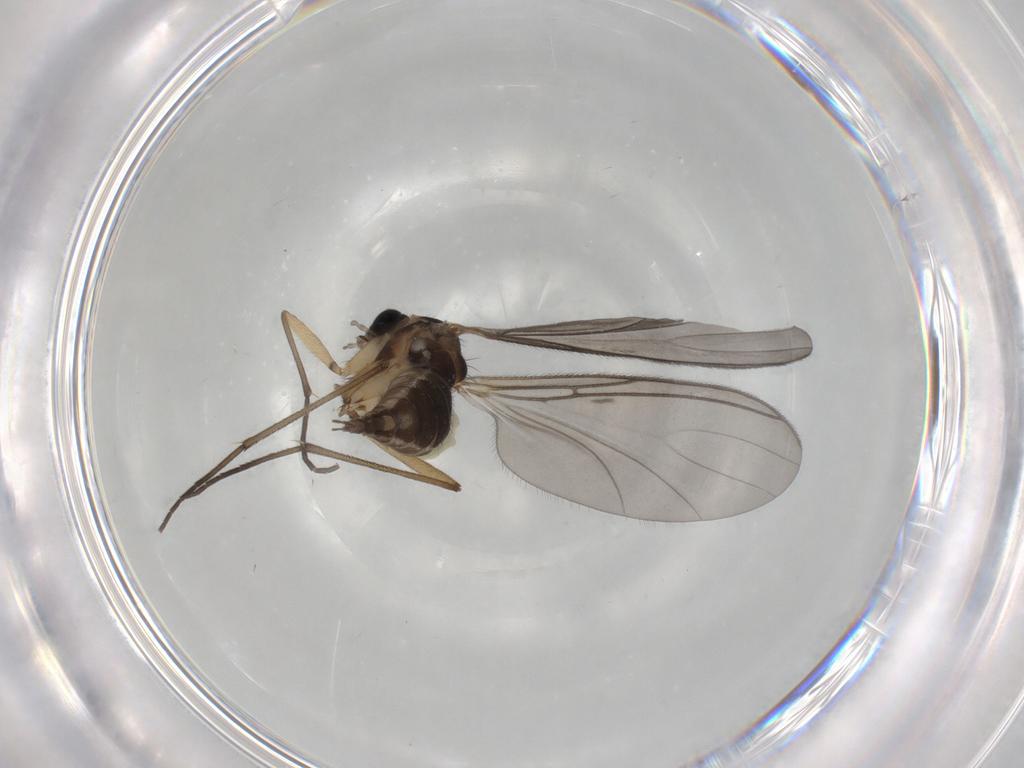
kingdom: Animalia
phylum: Arthropoda
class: Insecta
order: Diptera
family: Sciaridae
